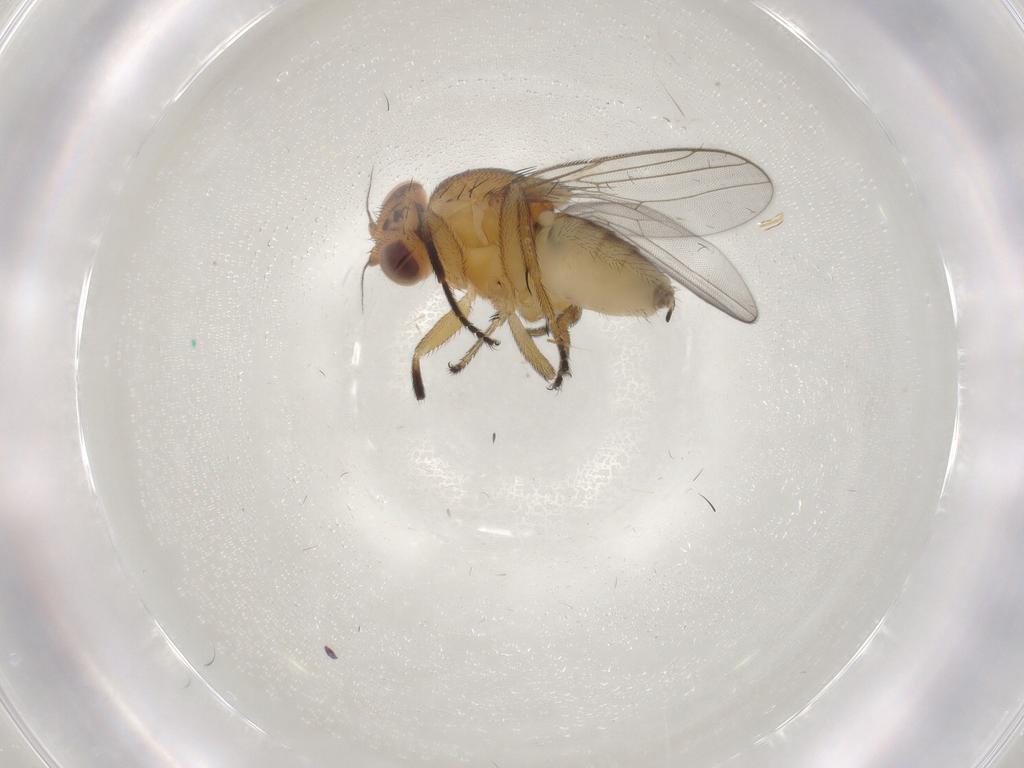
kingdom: Animalia
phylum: Arthropoda
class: Insecta
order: Diptera
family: Chloropidae
